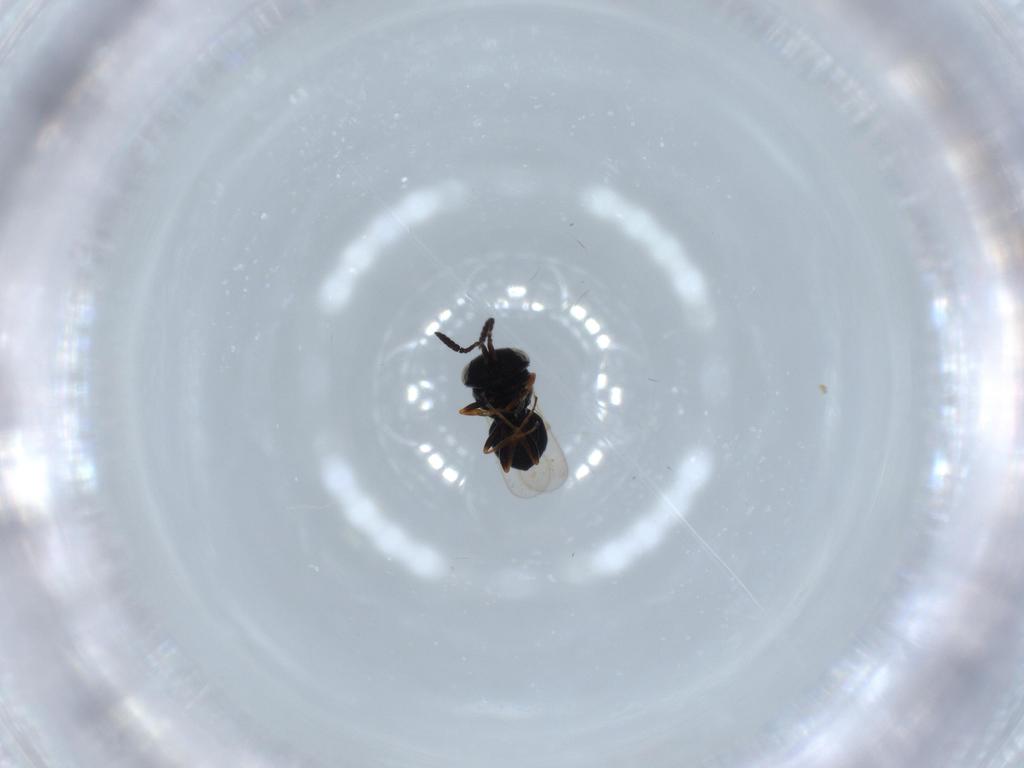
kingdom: Animalia
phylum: Arthropoda
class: Insecta
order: Hymenoptera
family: Scelionidae
